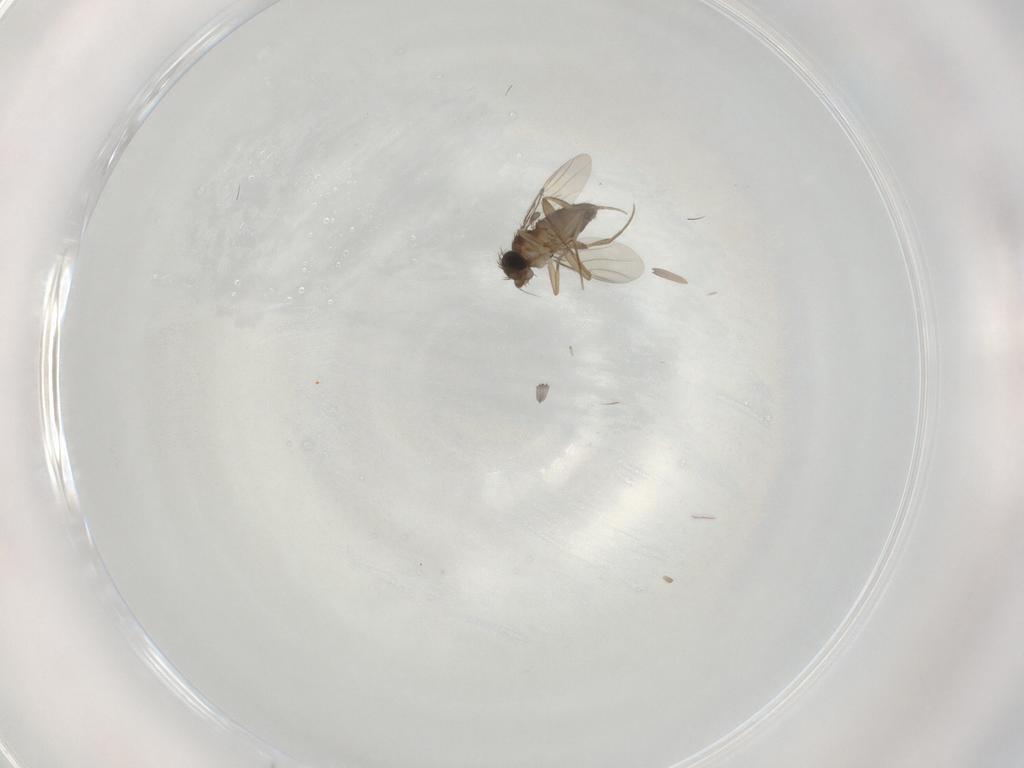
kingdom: Animalia
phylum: Arthropoda
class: Insecta
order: Diptera
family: Phoridae
